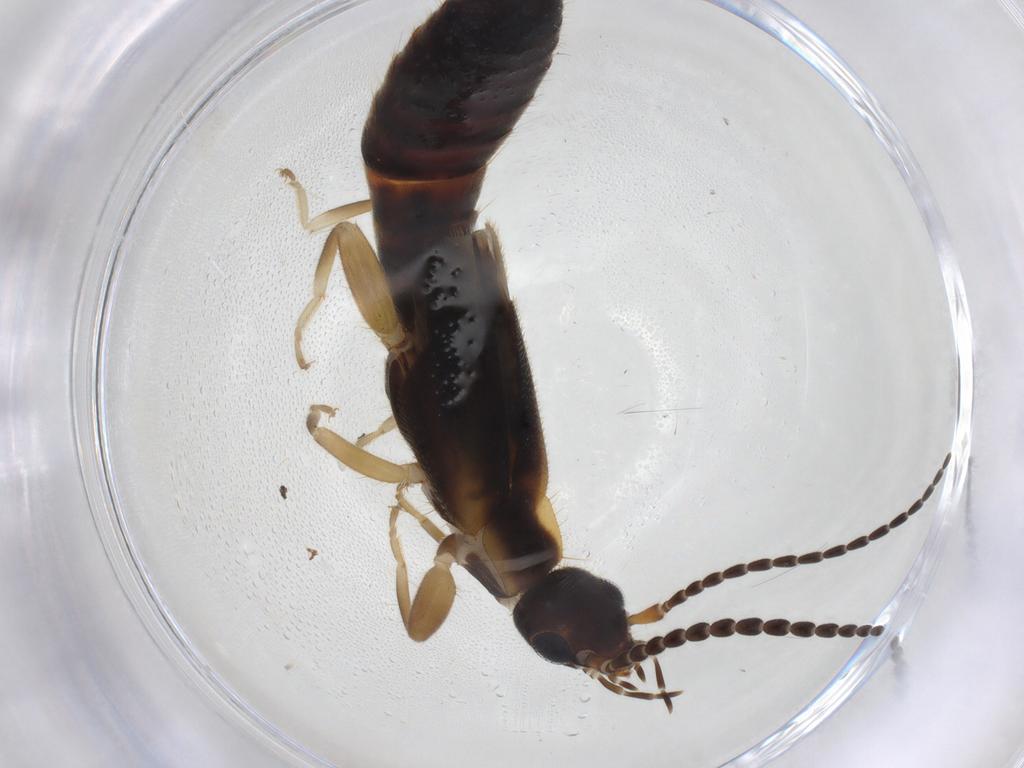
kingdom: Animalia
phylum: Arthropoda
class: Insecta
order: Dermaptera
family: Forficulidae
